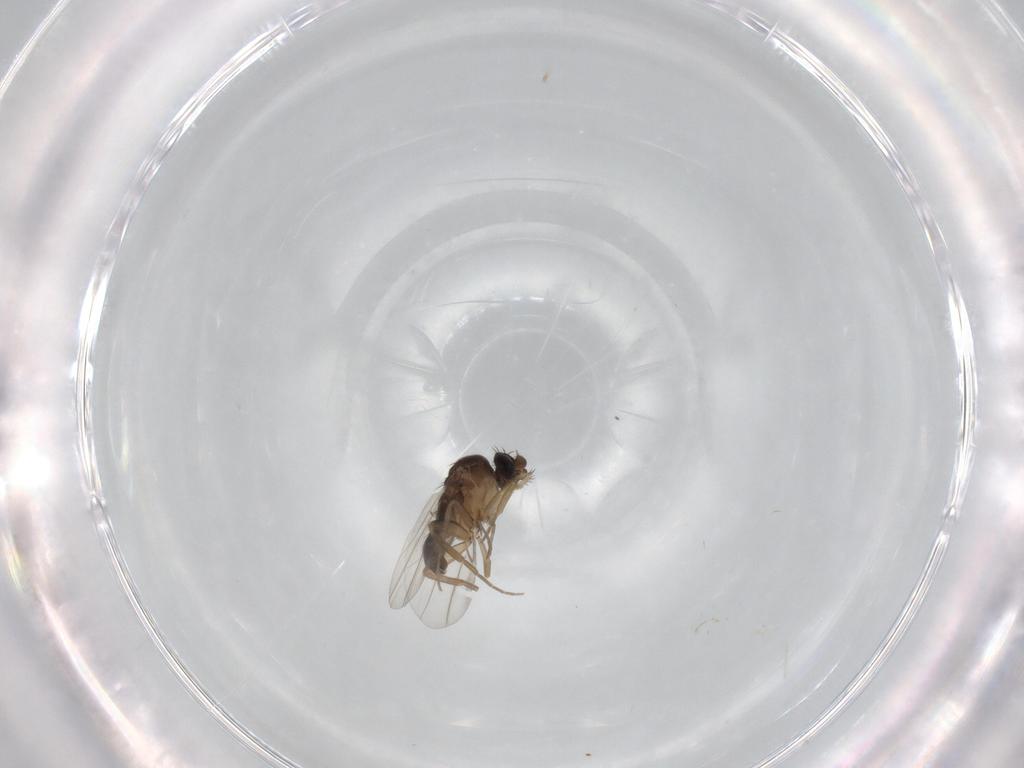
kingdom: Animalia
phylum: Arthropoda
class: Insecta
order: Diptera
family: Phoridae
